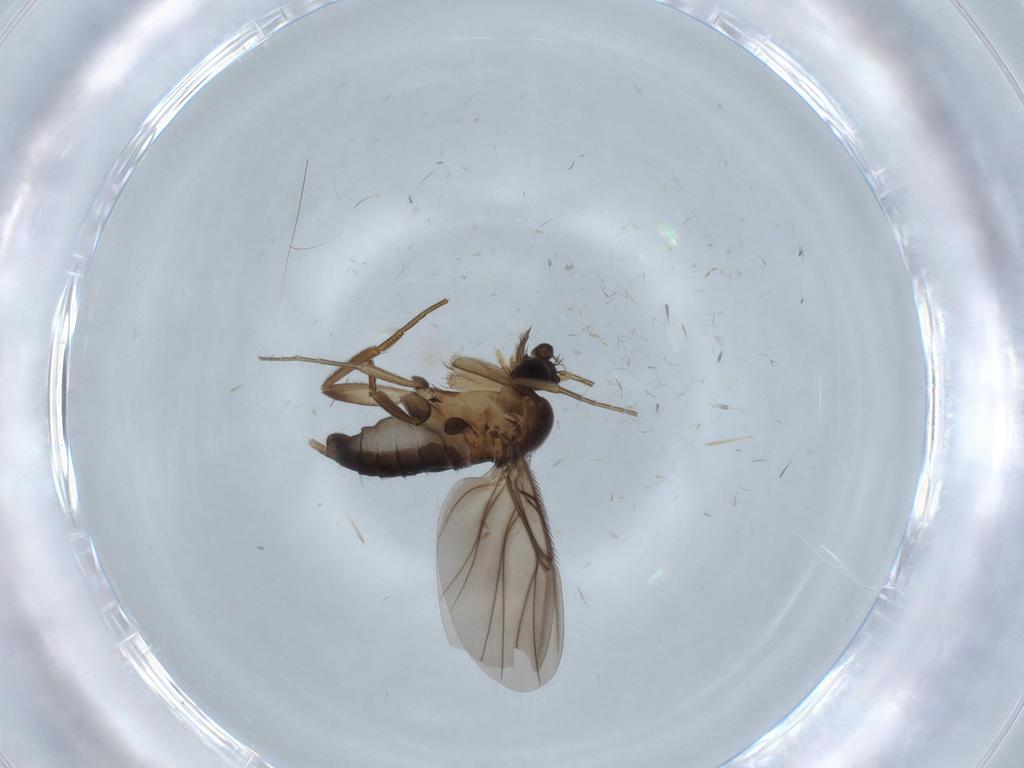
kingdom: Animalia
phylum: Arthropoda
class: Insecta
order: Diptera
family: Phoridae
